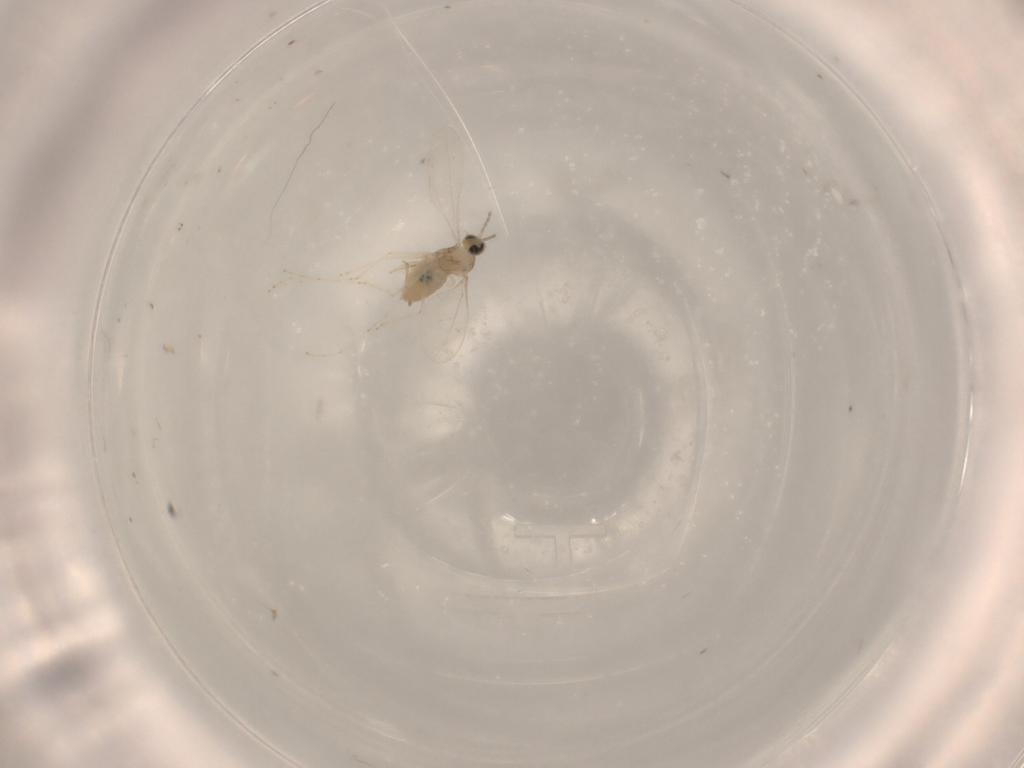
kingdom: Animalia
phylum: Arthropoda
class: Insecta
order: Diptera
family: Cecidomyiidae
